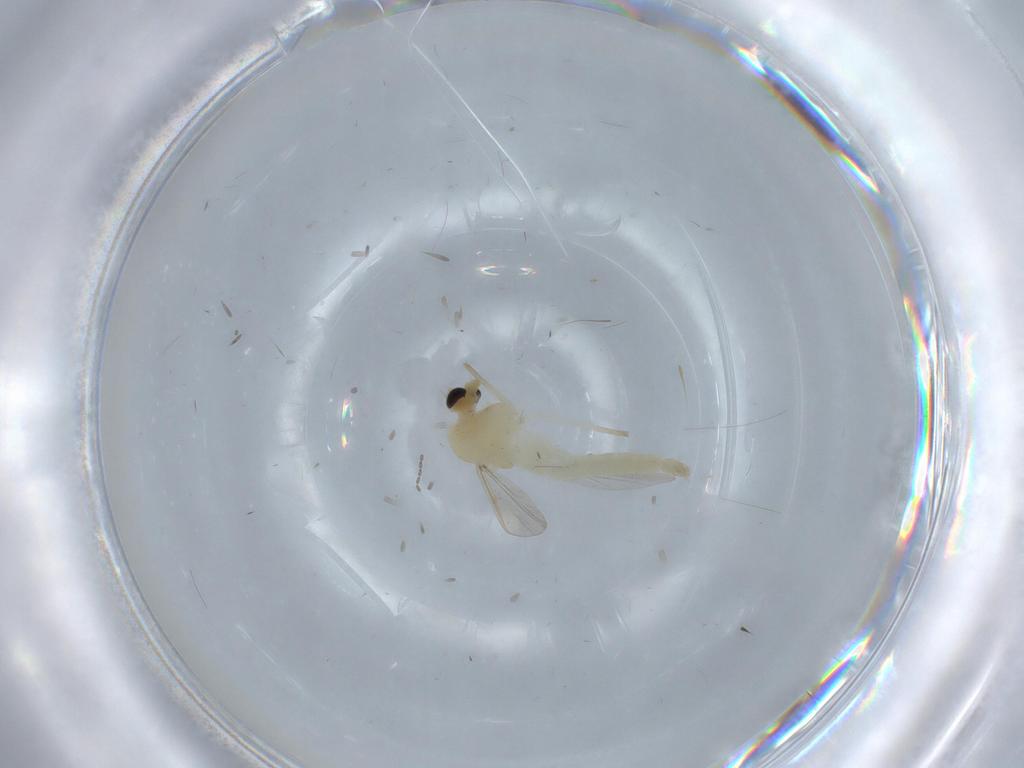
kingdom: Animalia
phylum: Arthropoda
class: Insecta
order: Diptera
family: Chironomidae
